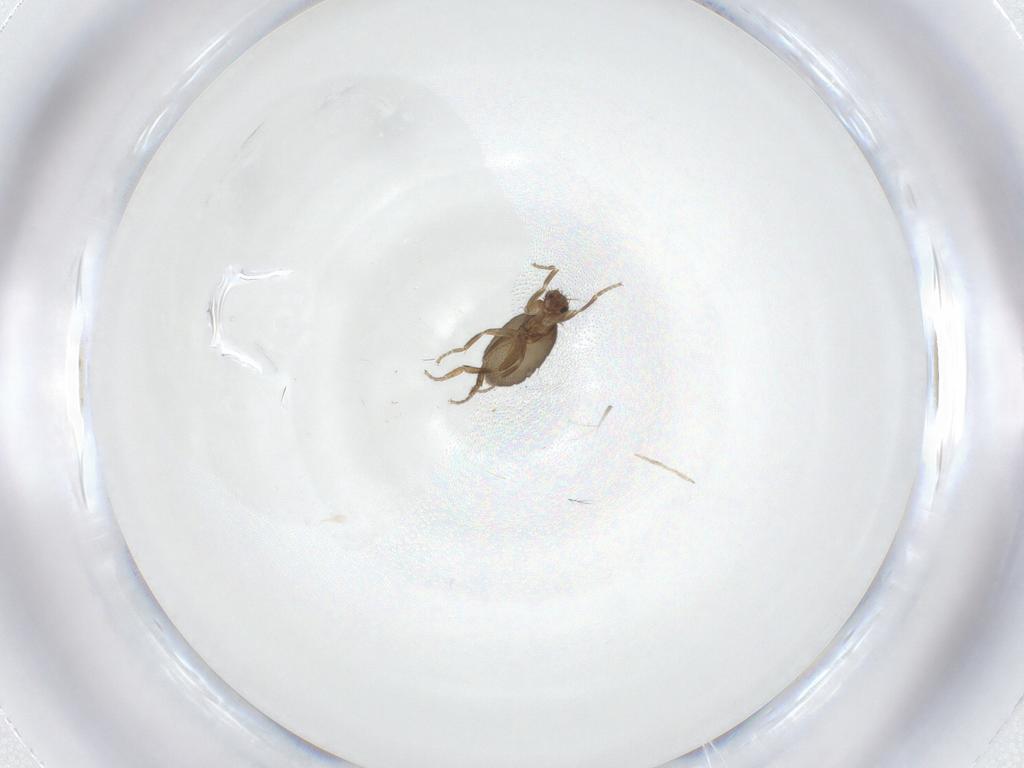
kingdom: Animalia
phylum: Arthropoda
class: Insecta
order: Diptera
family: Chironomidae
